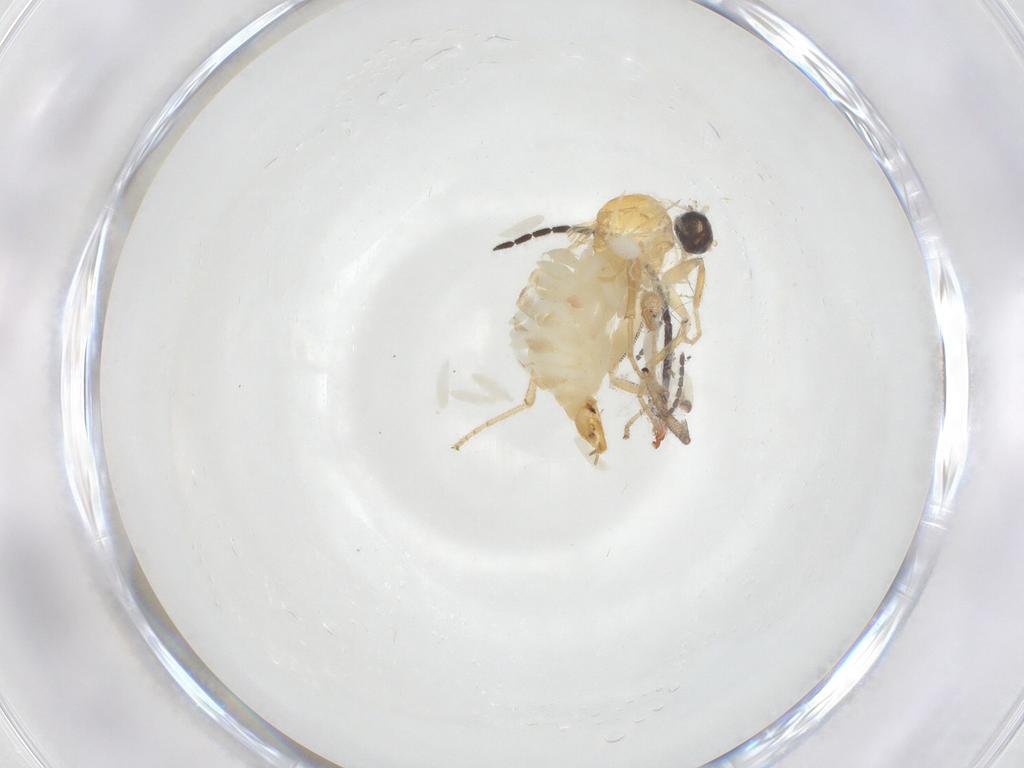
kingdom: Animalia
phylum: Arthropoda
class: Insecta
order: Diptera
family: Hybotidae
